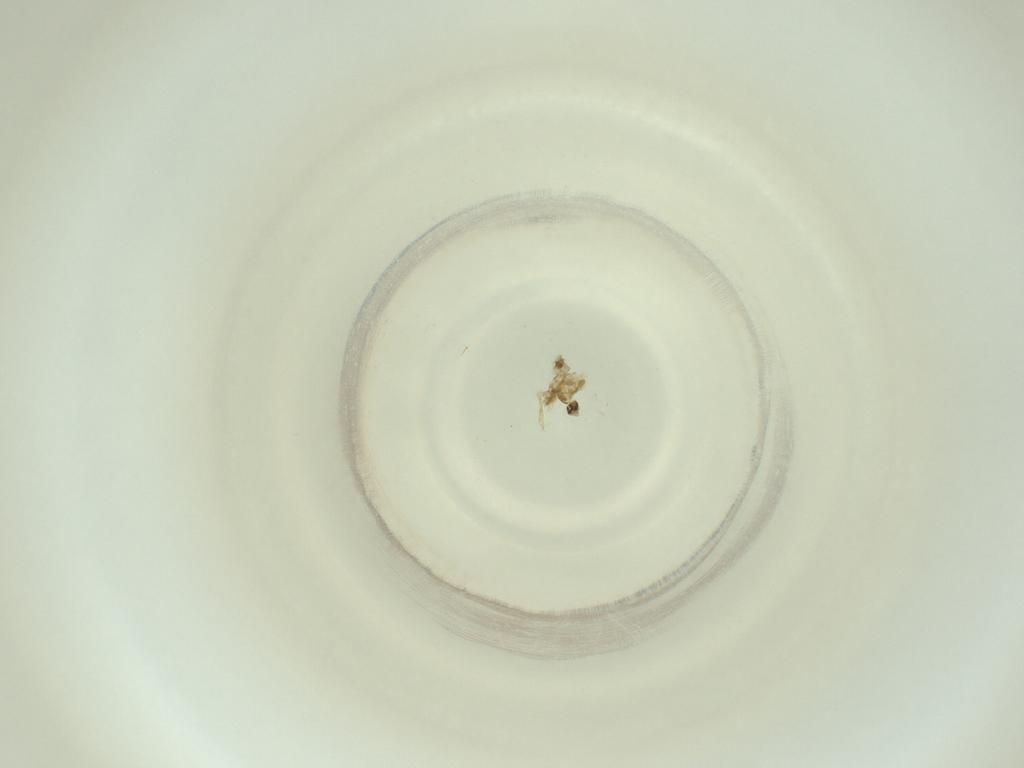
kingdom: Animalia
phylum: Arthropoda
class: Insecta
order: Diptera
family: Cecidomyiidae
